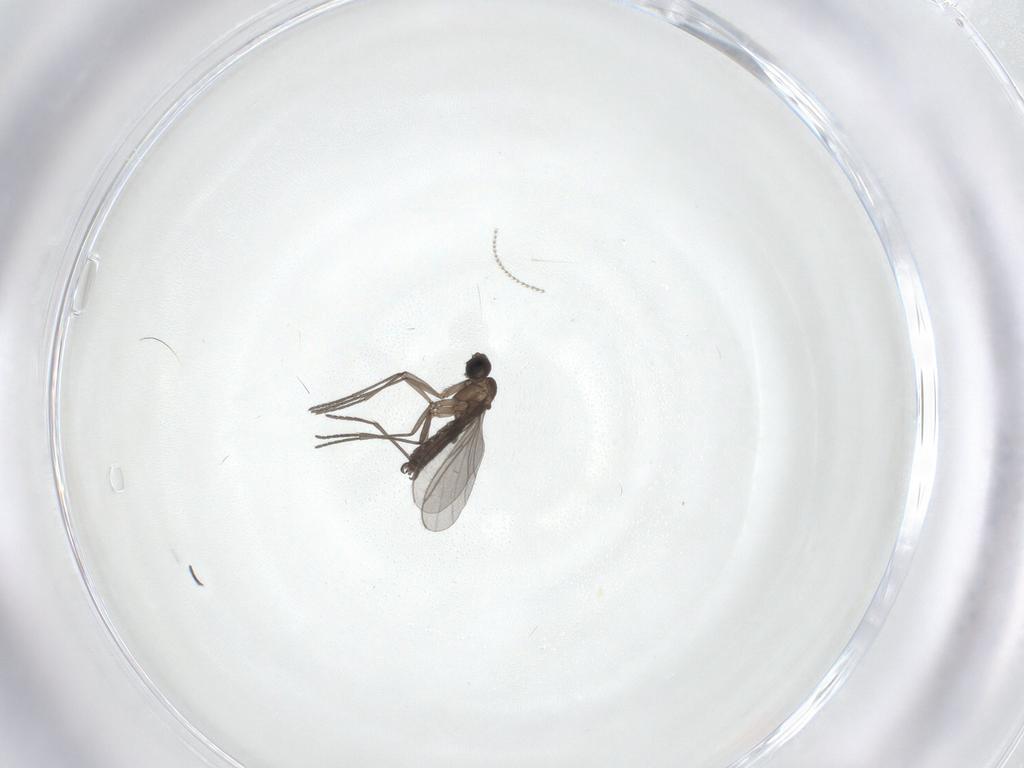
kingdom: Animalia
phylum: Arthropoda
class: Insecta
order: Diptera
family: Cecidomyiidae
